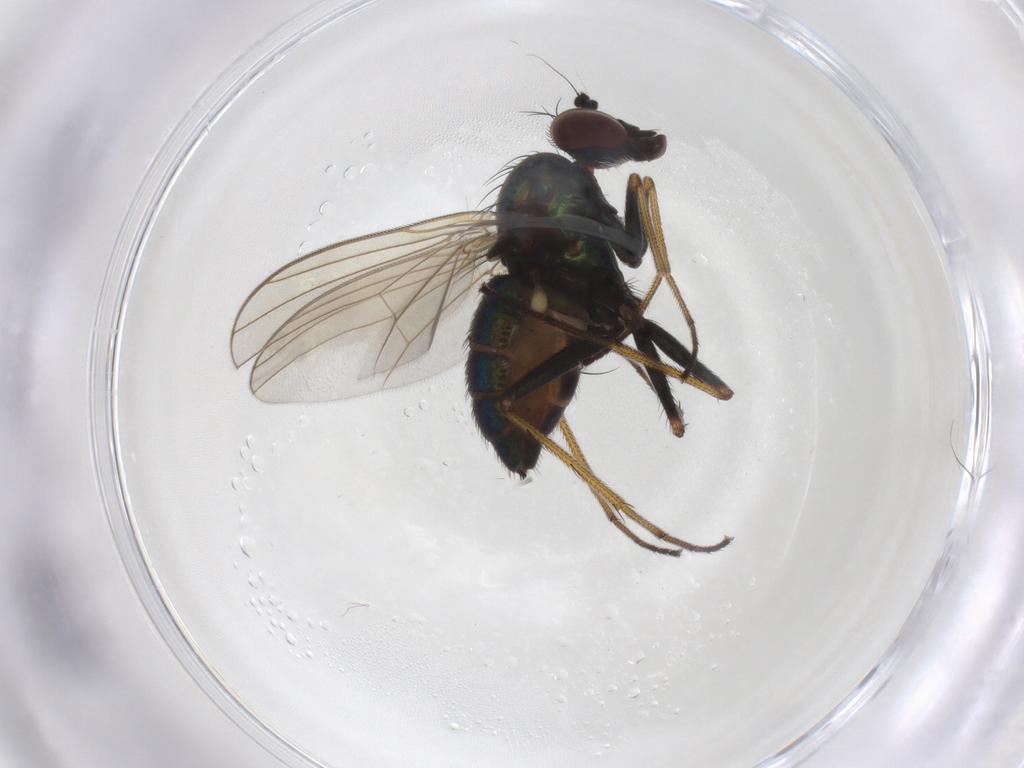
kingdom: Animalia
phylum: Arthropoda
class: Insecta
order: Diptera
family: Dolichopodidae
